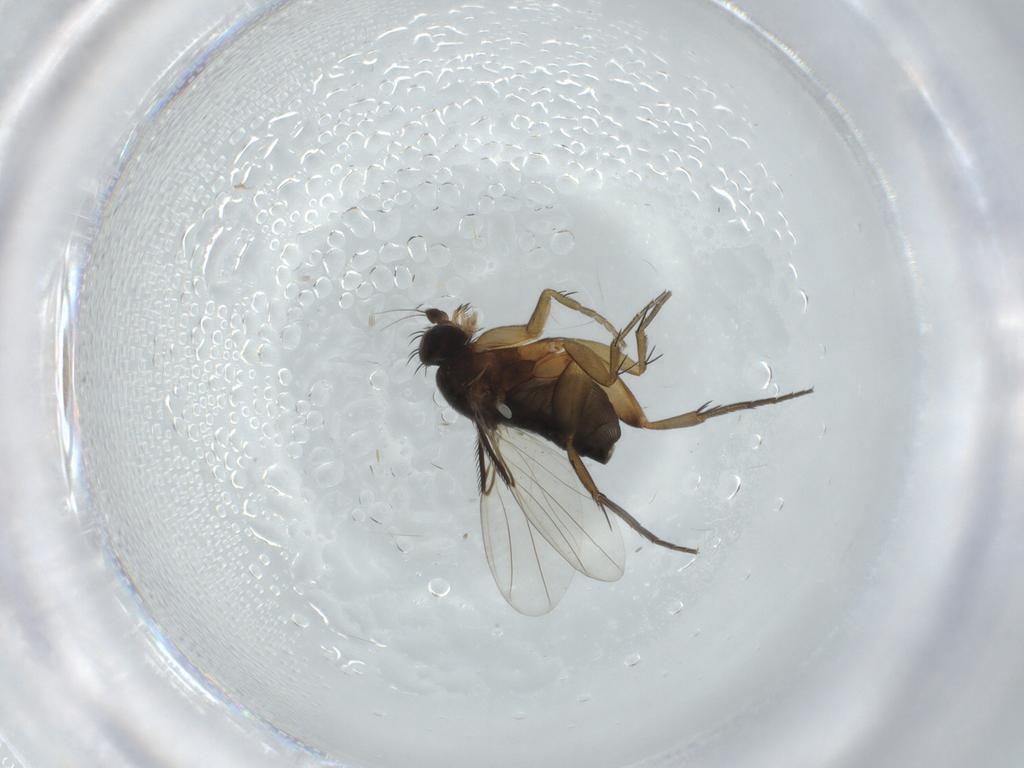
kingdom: Animalia
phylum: Arthropoda
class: Insecta
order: Diptera
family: Phoridae
